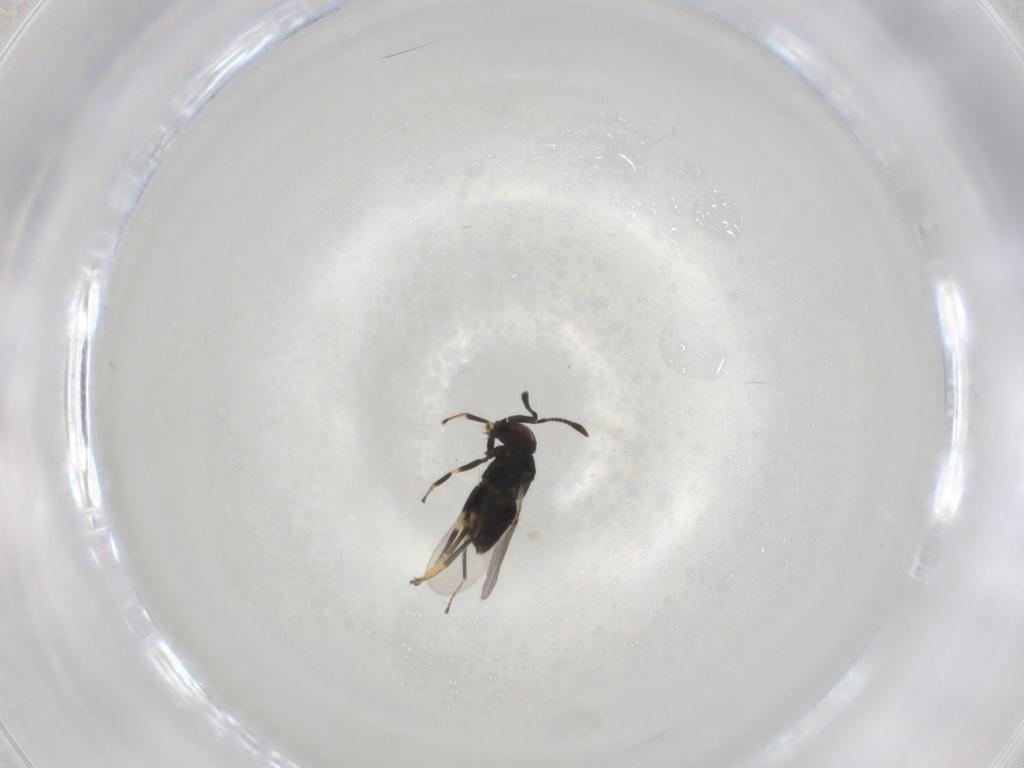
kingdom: Animalia
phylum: Arthropoda
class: Insecta
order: Hymenoptera
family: Encyrtidae
